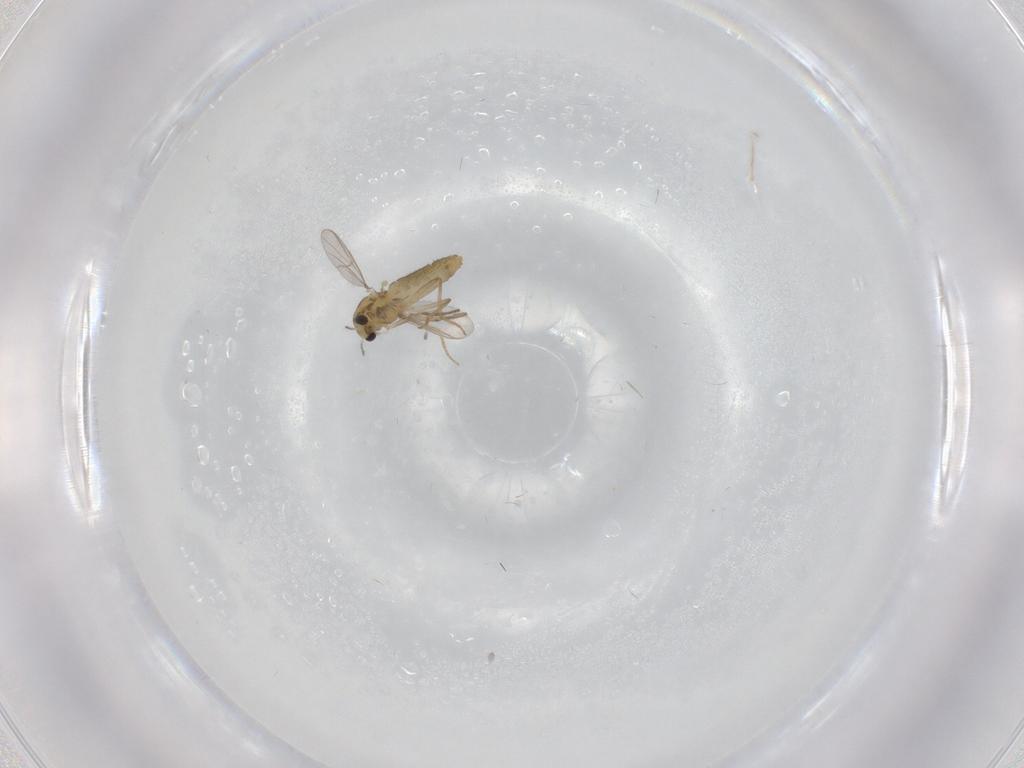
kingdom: Animalia
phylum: Arthropoda
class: Insecta
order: Diptera
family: Chironomidae
